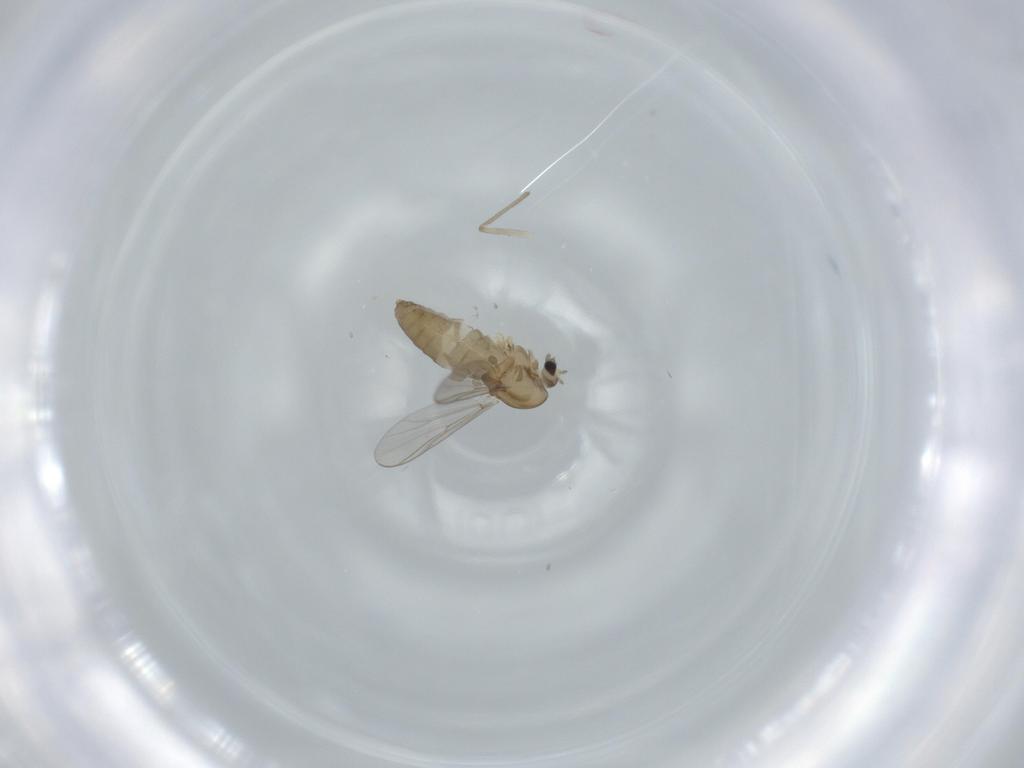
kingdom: Animalia
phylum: Arthropoda
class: Insecta
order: Diptera
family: Chironomidae
